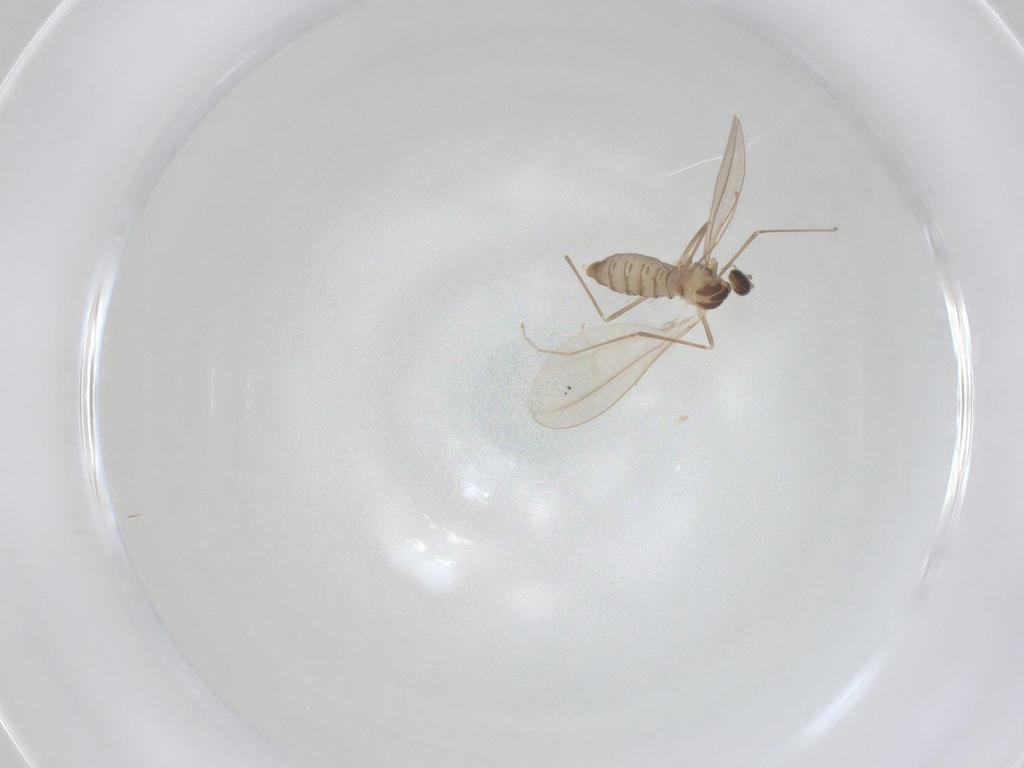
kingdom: Animalia
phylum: Arthropoda
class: Insecta
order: Diptera
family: Cecidomyiidae
